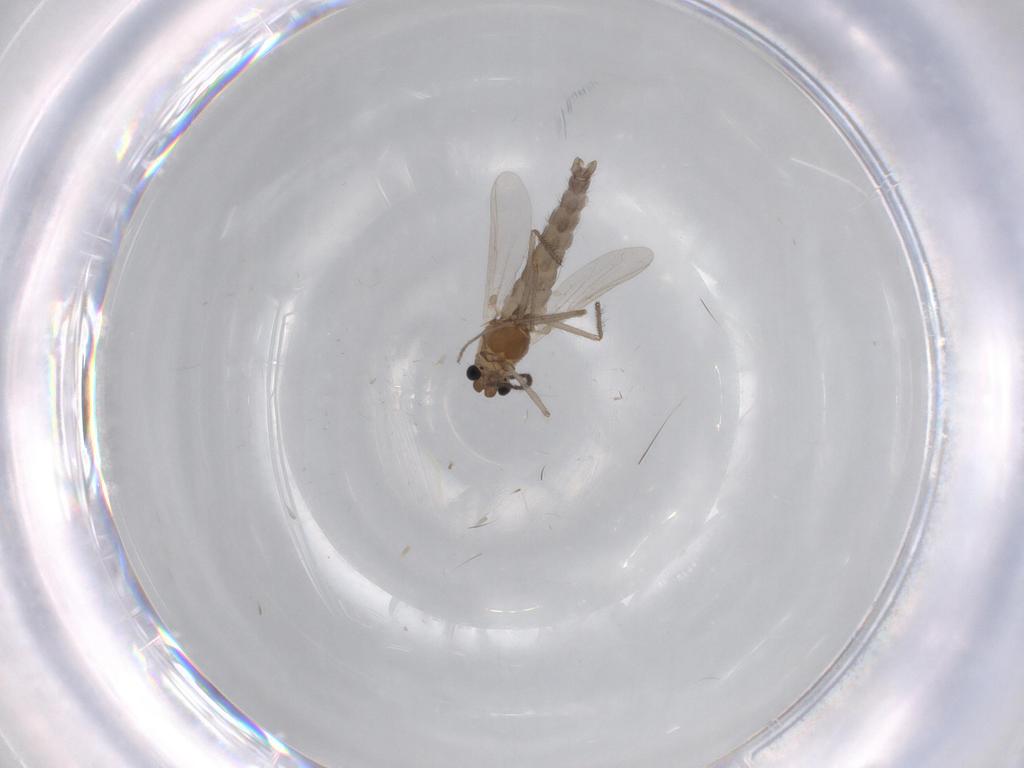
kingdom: Animalia
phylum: Arthropoda
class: Insecta
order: Diptera
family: Chironomidae
